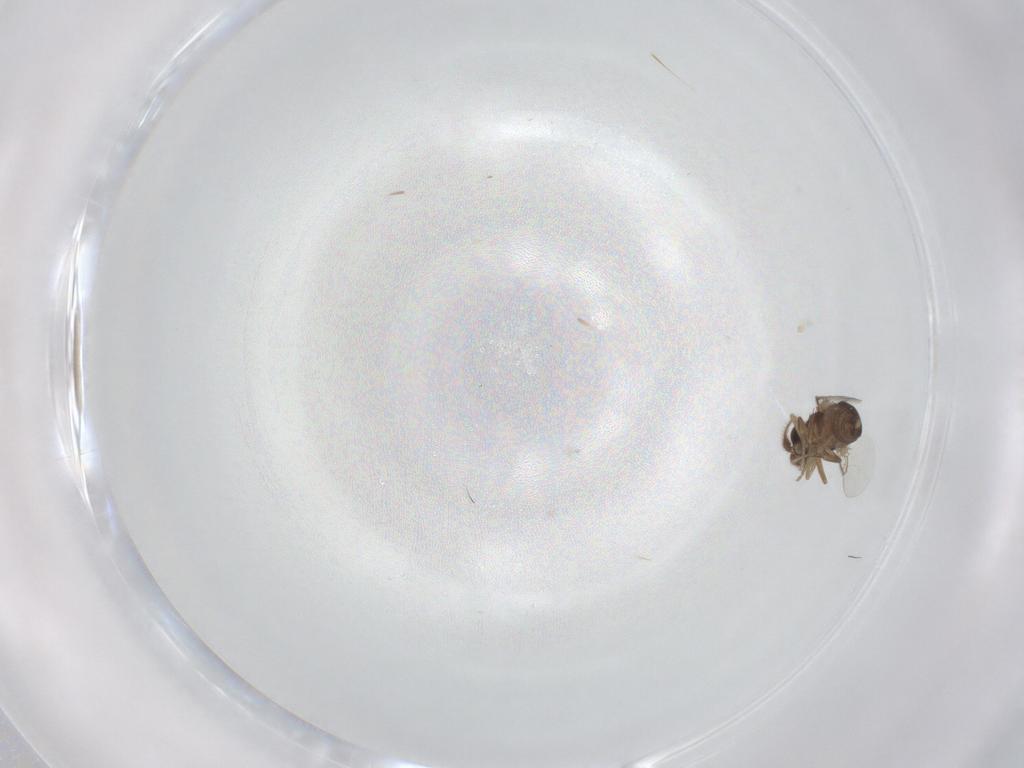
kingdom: Animalia
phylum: Arthropoda
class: Insecta
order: Diptera
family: Phoridae
